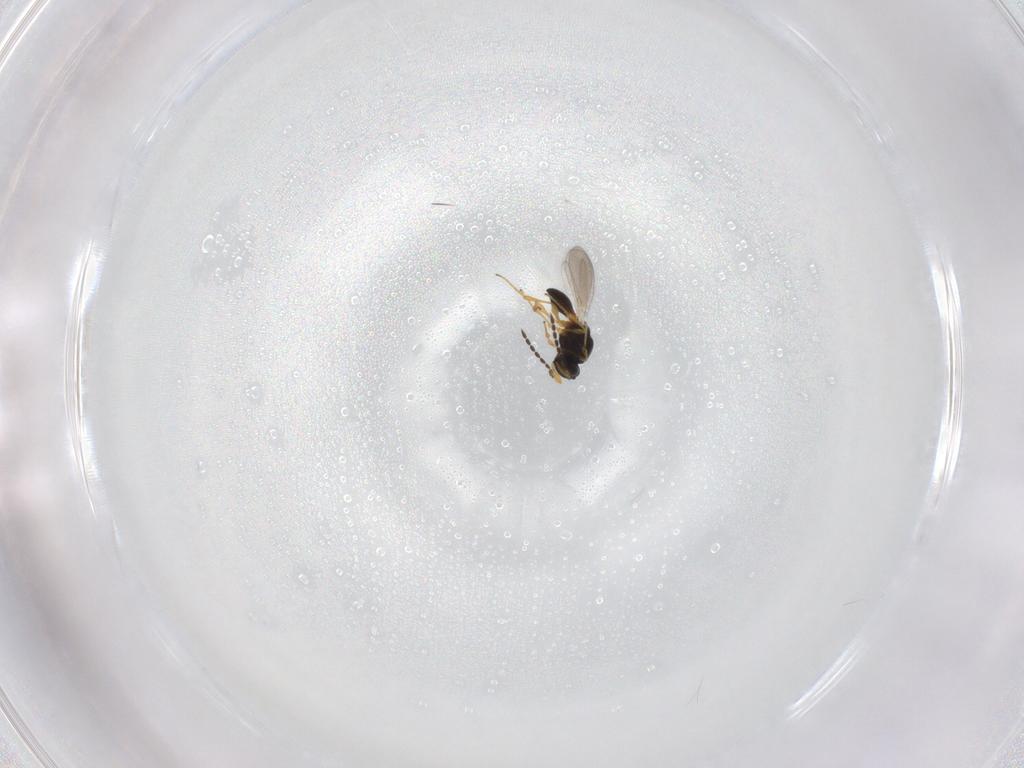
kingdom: Animalia
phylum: Arthropoda
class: Insecta
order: Hymenoptera
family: Platygastridae
